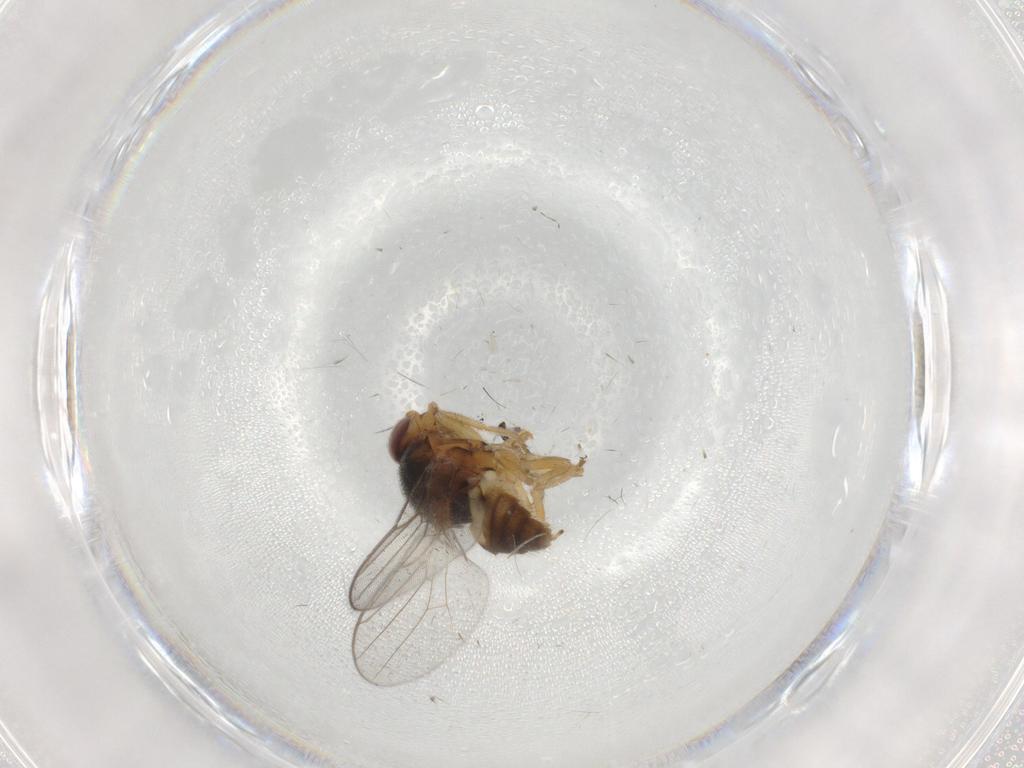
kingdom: Animalia
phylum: Arthropoda
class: Insecta
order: Diptera
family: Chloropidae
